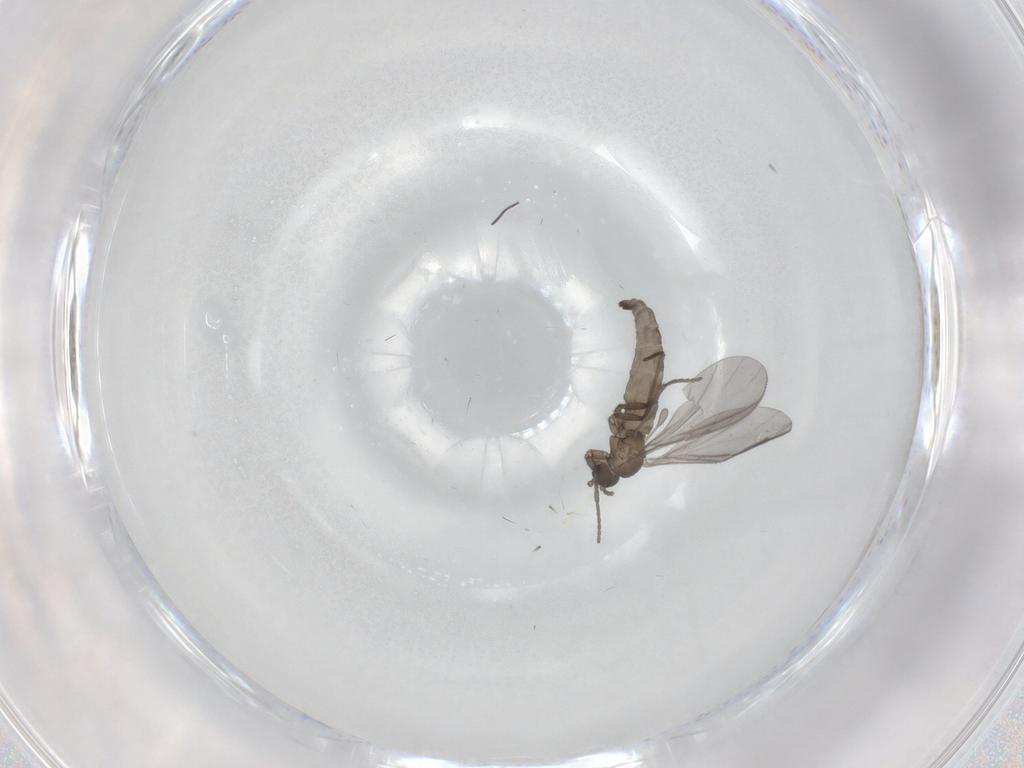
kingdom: Animalia
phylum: Arthropoda
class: Insecta
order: Diptera
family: Sciaridae
